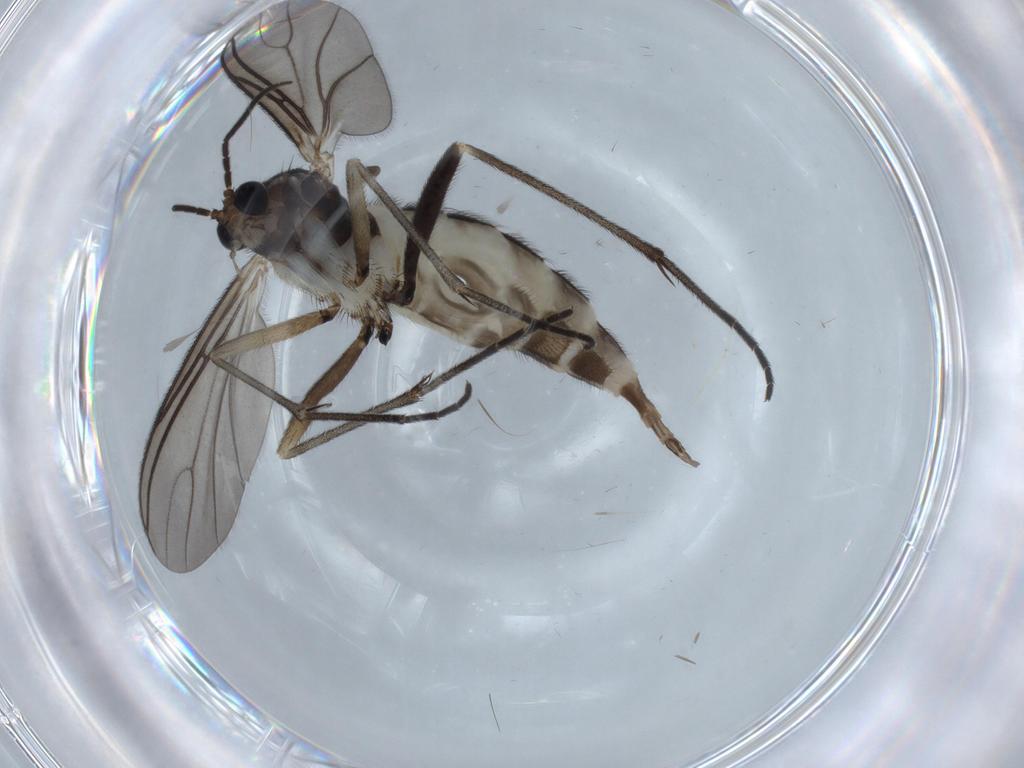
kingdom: Animalia
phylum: Arthropoda
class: Insecta
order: Diptera
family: Sciaridae
